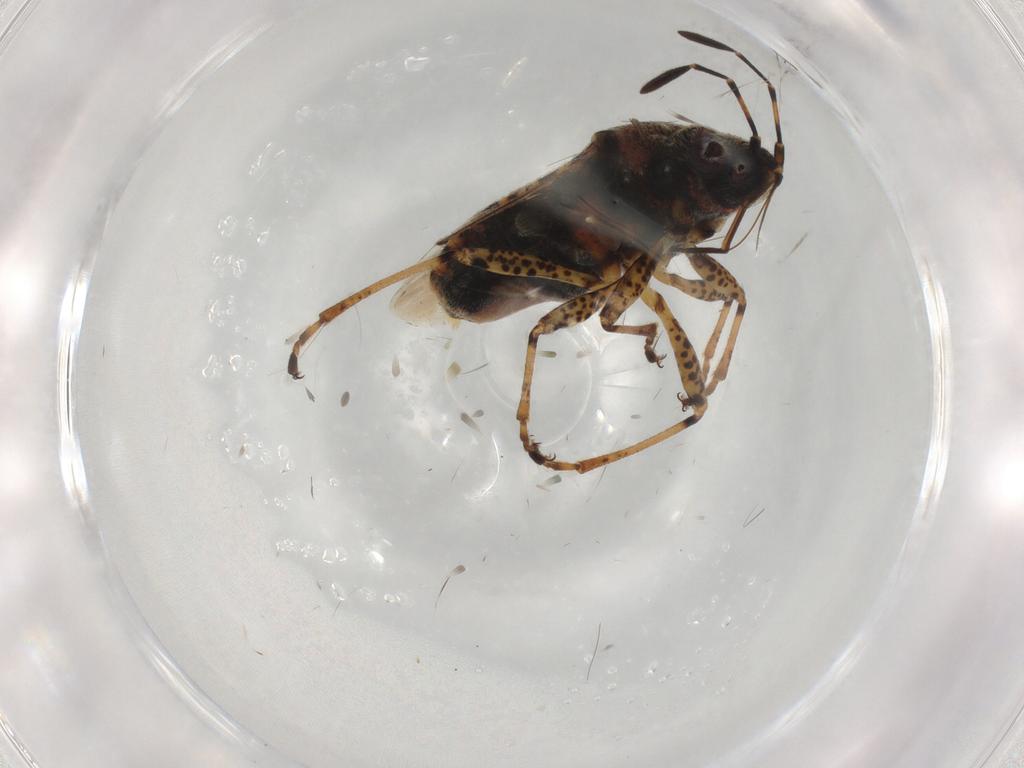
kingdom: Animalia
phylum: Arthropoda
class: Insecta
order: Hemiptera
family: Lygaeidae
